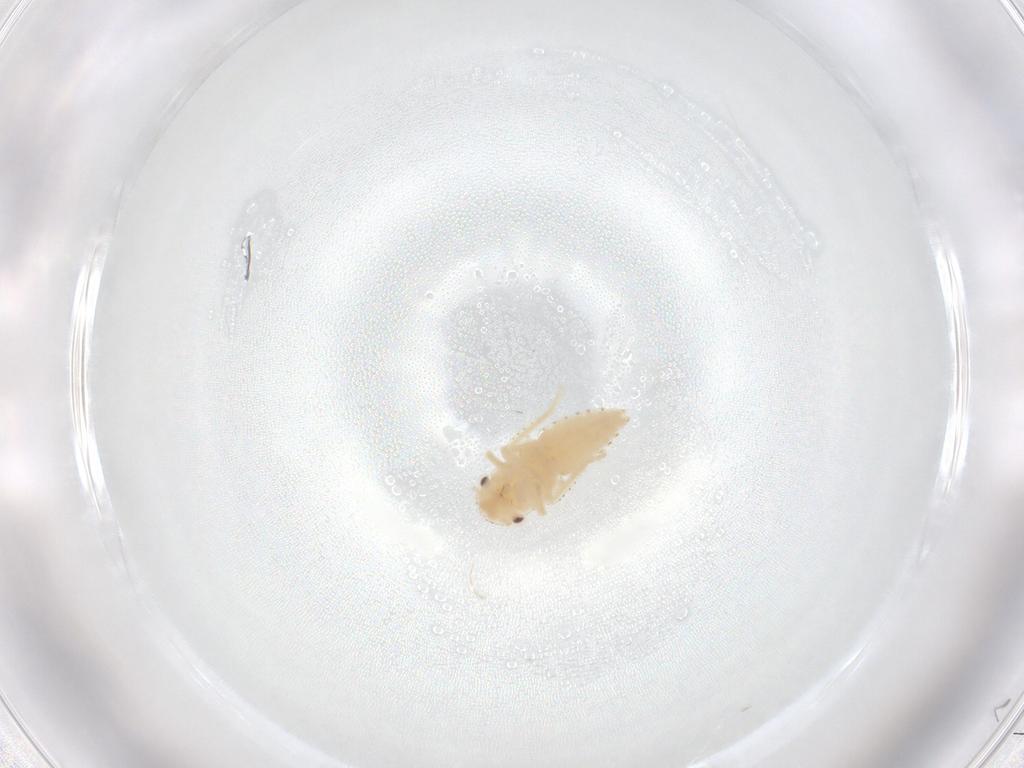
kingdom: Animalia
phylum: Arthropoda
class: Insecta
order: Hemiptera
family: Cicadellidae
